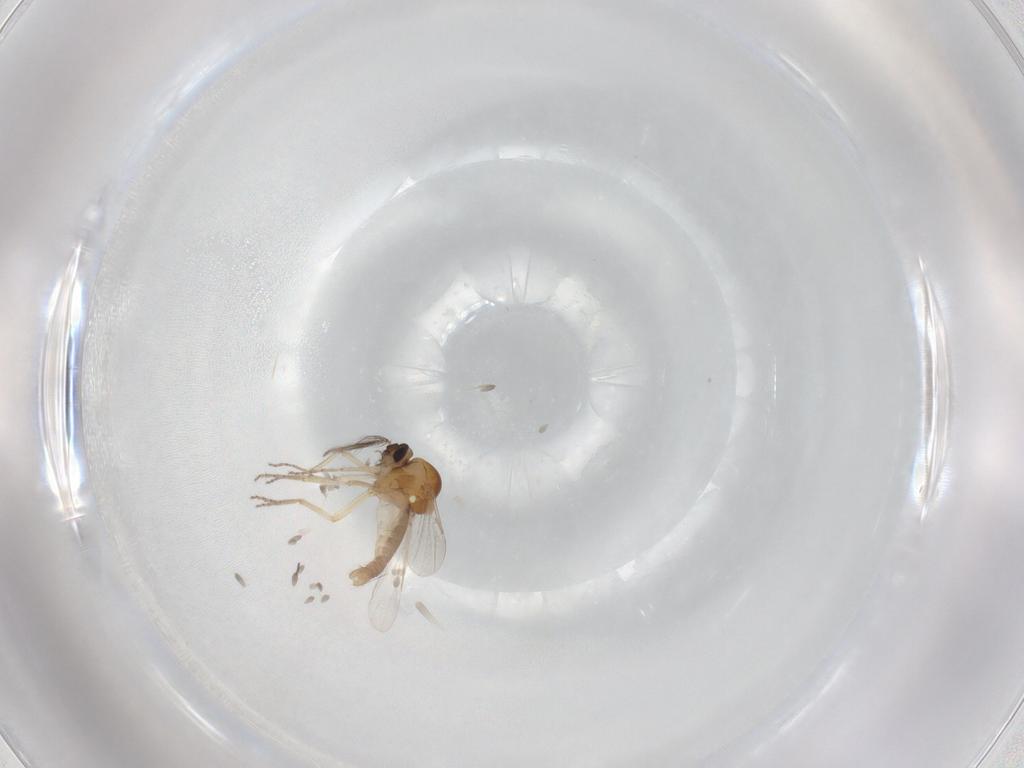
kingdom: Animalia
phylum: Arthropoda
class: Insecta
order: Diptera
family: Ceratopogonidae
